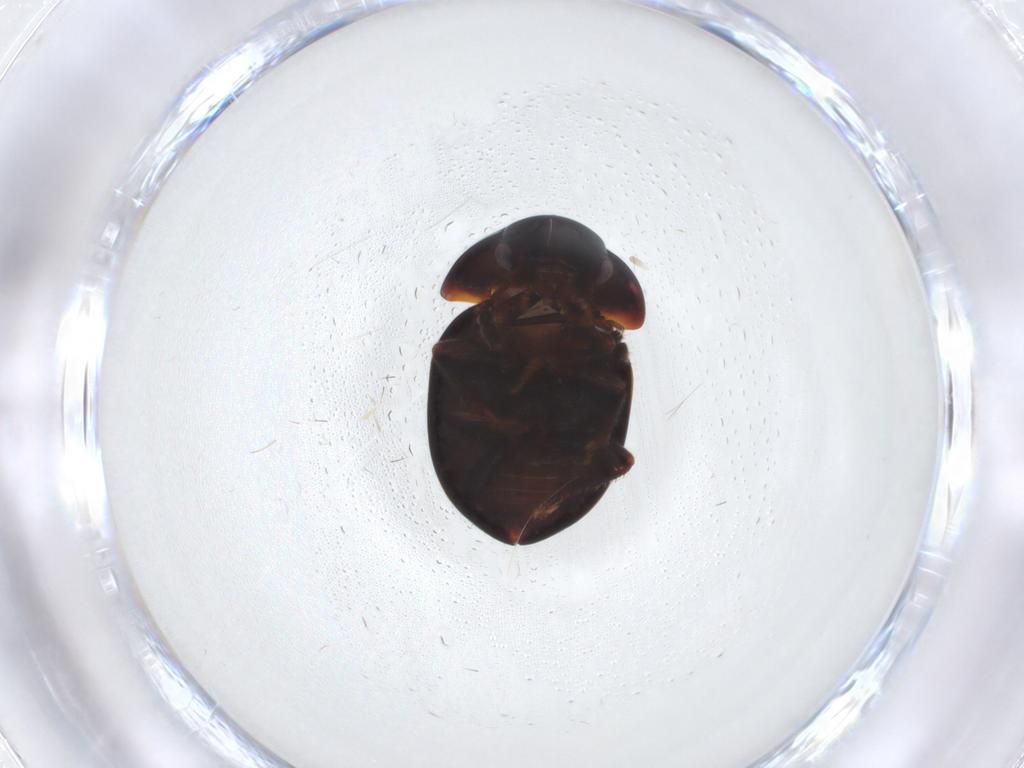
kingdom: Animalia
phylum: Arthropoda
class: Insecta
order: Coleoptera
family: Leiodidae
